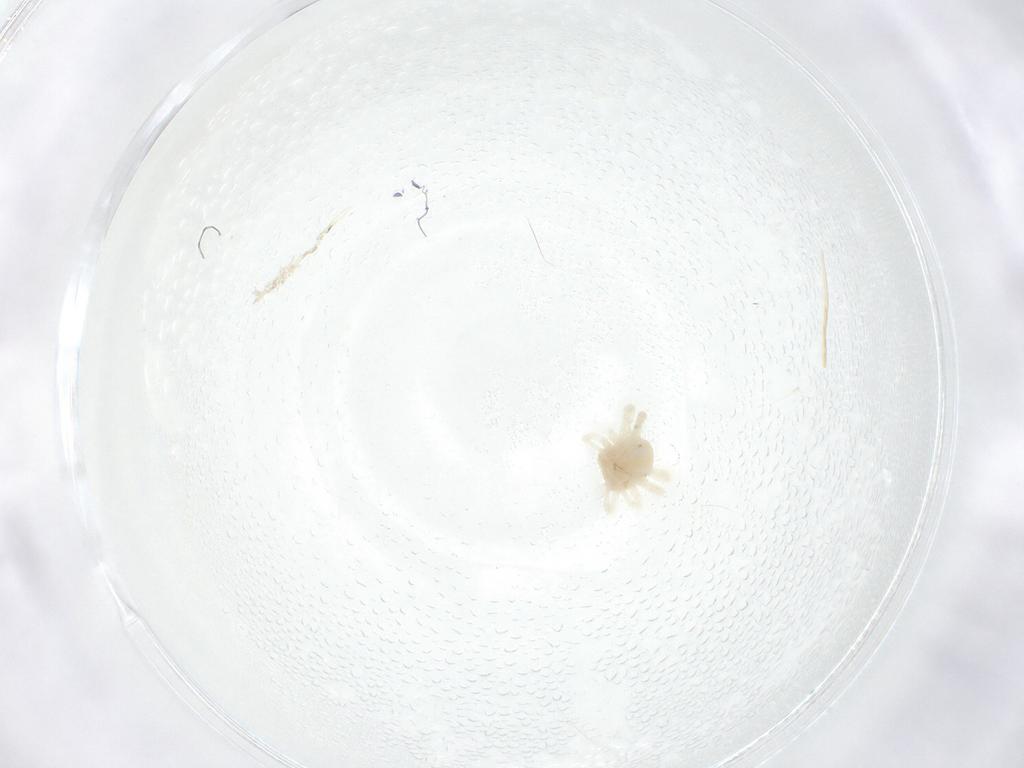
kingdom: Animalia
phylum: Arthropoda
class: Arachnida
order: Trombidiformes
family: Anystidae
